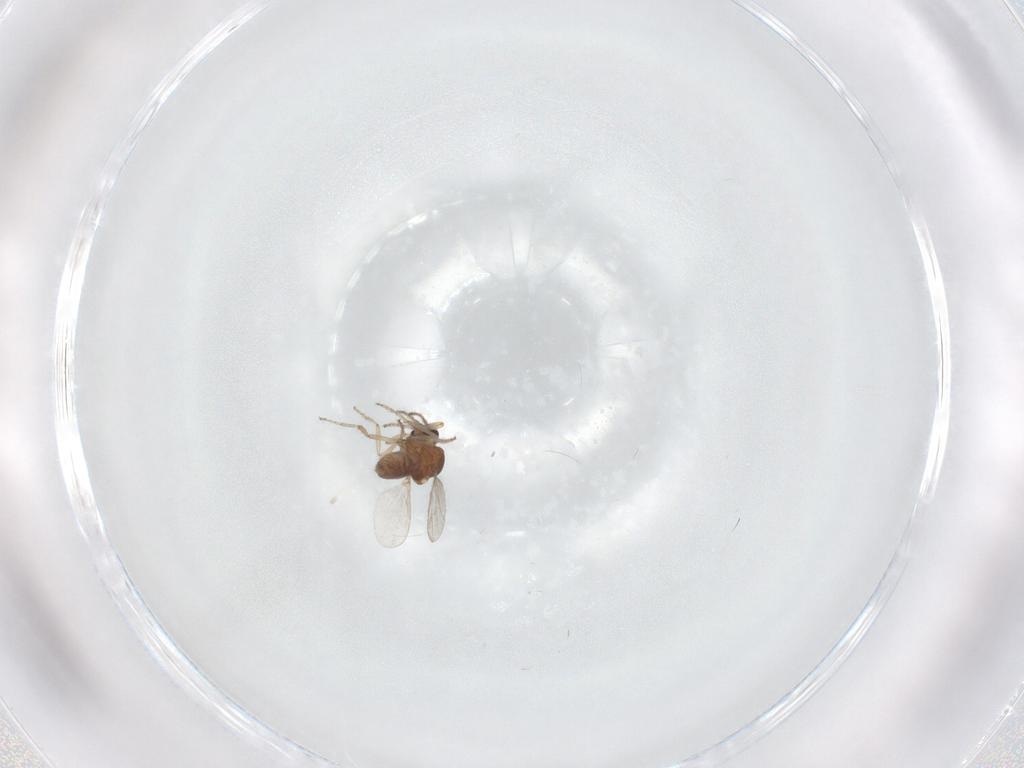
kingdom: Animalia
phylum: Arthropoda
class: Insecta
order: Diptera
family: Ceratopogonidae
